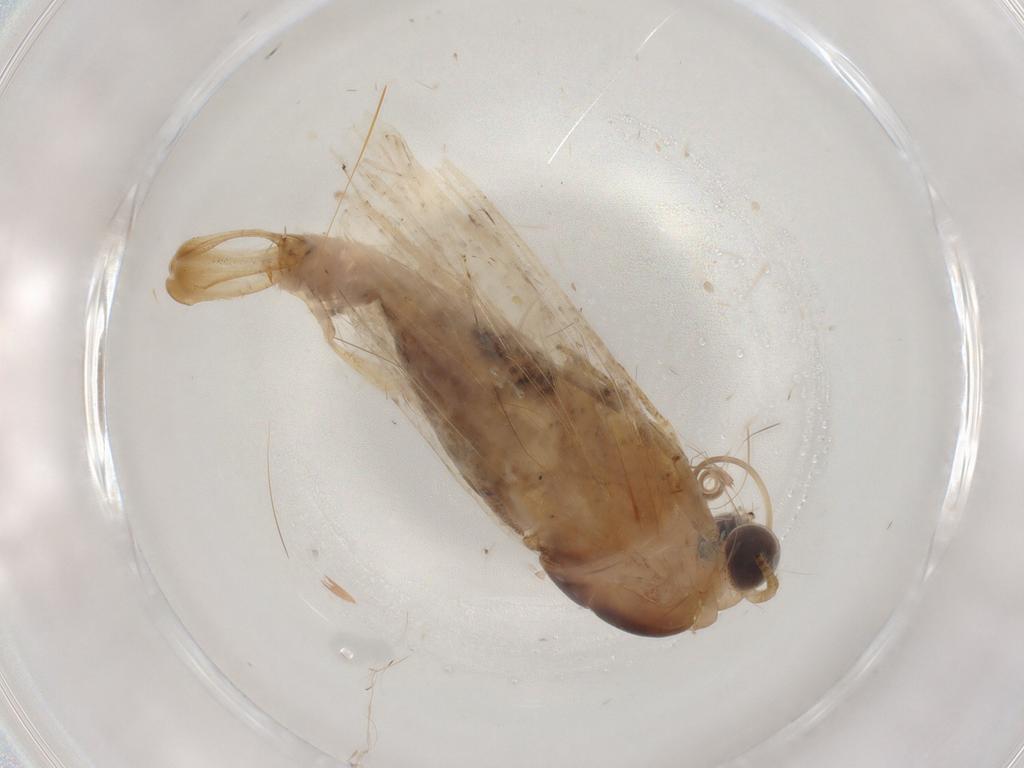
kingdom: Animalia
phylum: Arthropoda
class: Insecta
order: Lepidoptera
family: Nolidae
